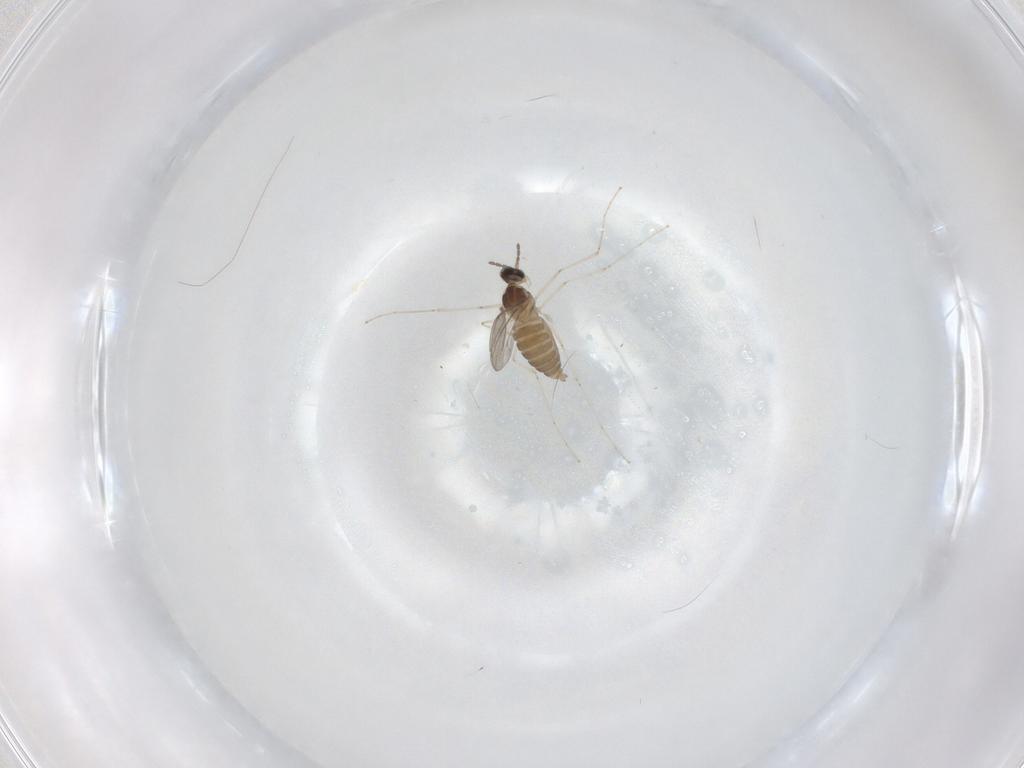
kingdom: Animalia
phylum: Arthropoda
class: Insecta
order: Diptera
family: Cecidomyiidae
